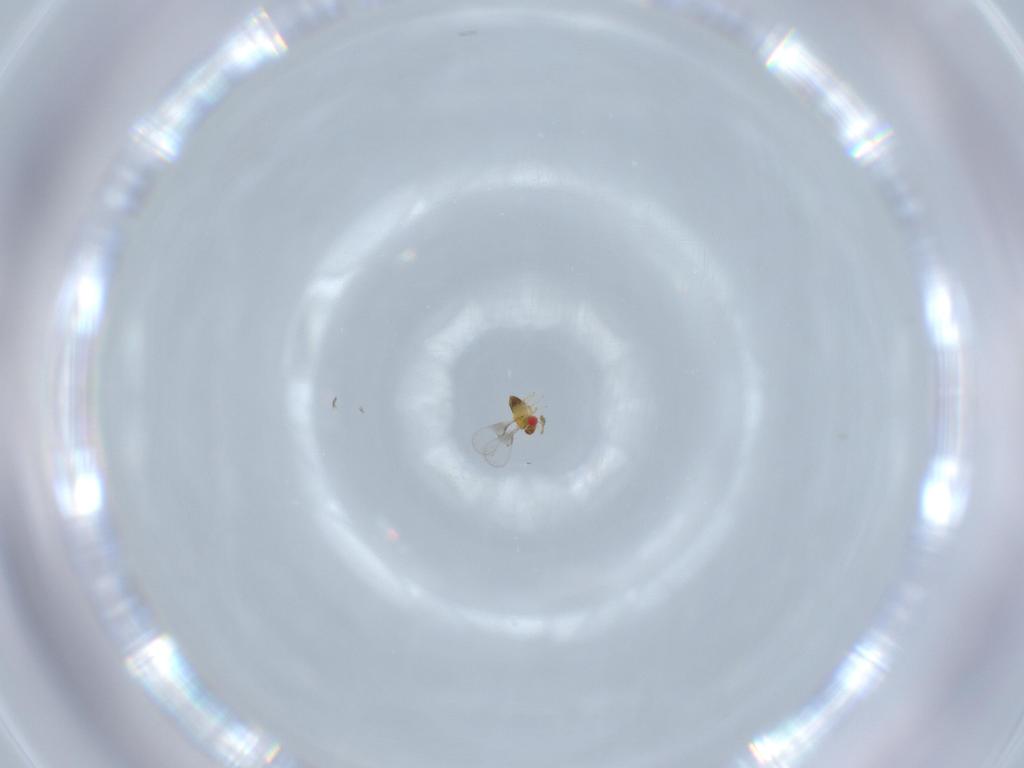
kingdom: Animalia
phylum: Arthropoda
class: Insecta
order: Hymenoptera
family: Trichogrammatidae
